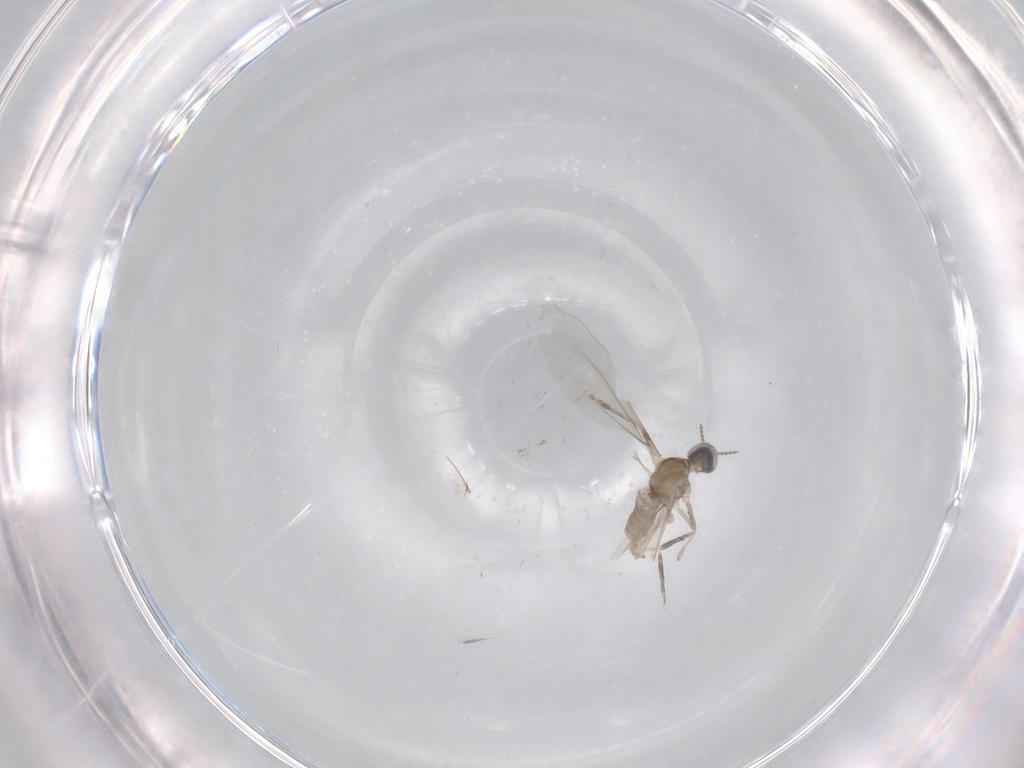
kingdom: Animalia
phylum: Arthropoda
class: Insecta
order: Diptera
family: Cecidomyiidae
